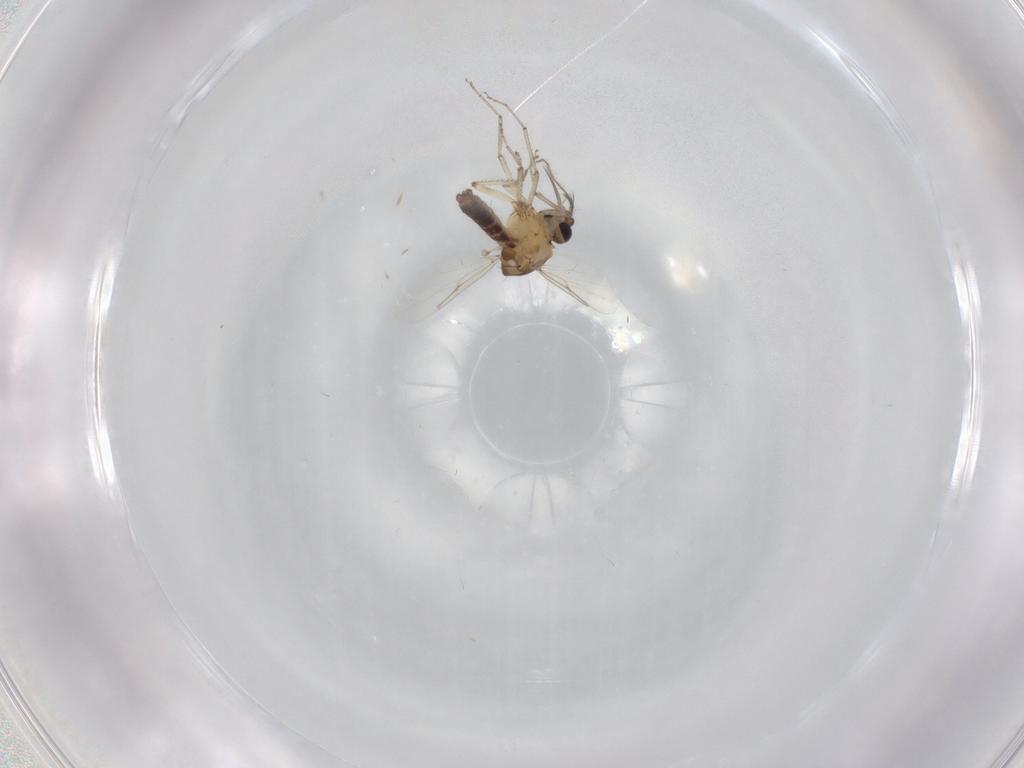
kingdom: Animalia
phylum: Arthropoda
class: Insecta
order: Diptera
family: Ceratopogonidae
